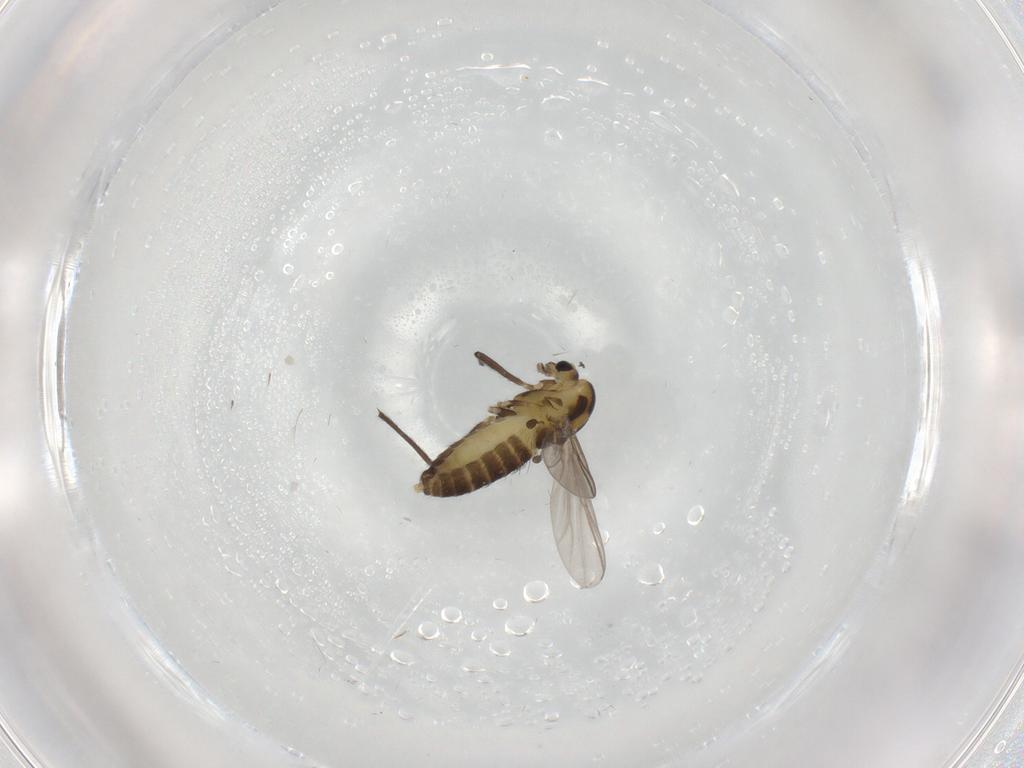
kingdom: Animalia
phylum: Arthropoda
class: Insecta
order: Diptera
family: Chironomidae
